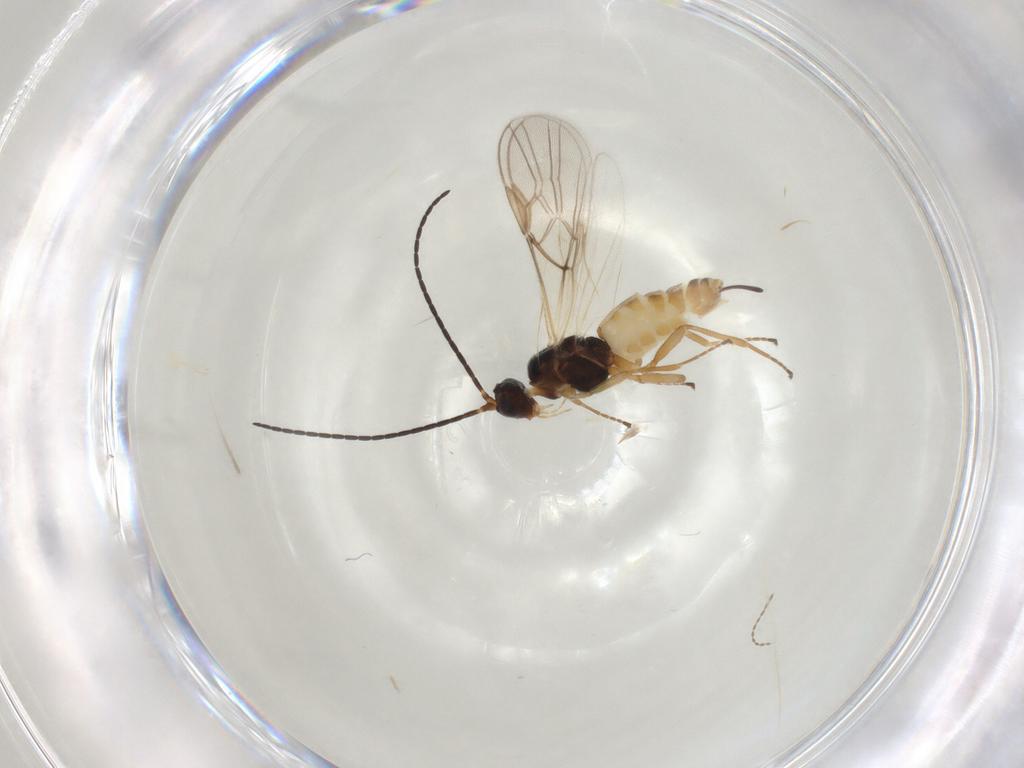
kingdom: Animalia
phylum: Arthropoda
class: Insecta
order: Hymenoptera
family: Braconidae
